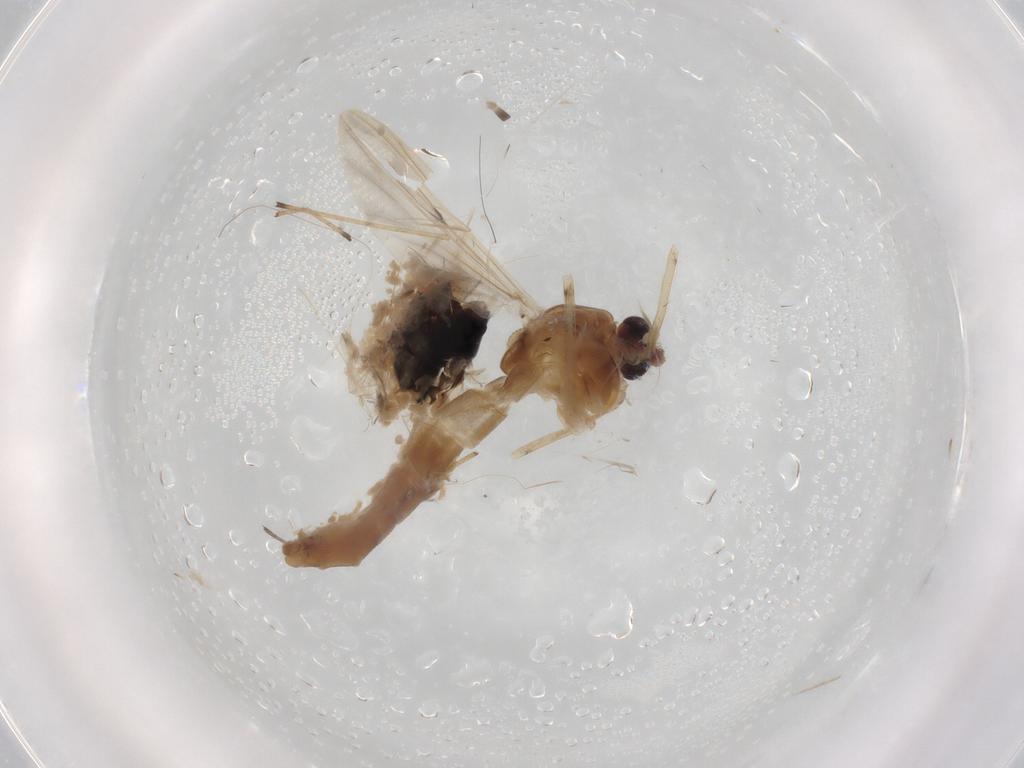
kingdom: Animalia
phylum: Arthropoda
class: Insecta
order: Diptera
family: Ephydridae
